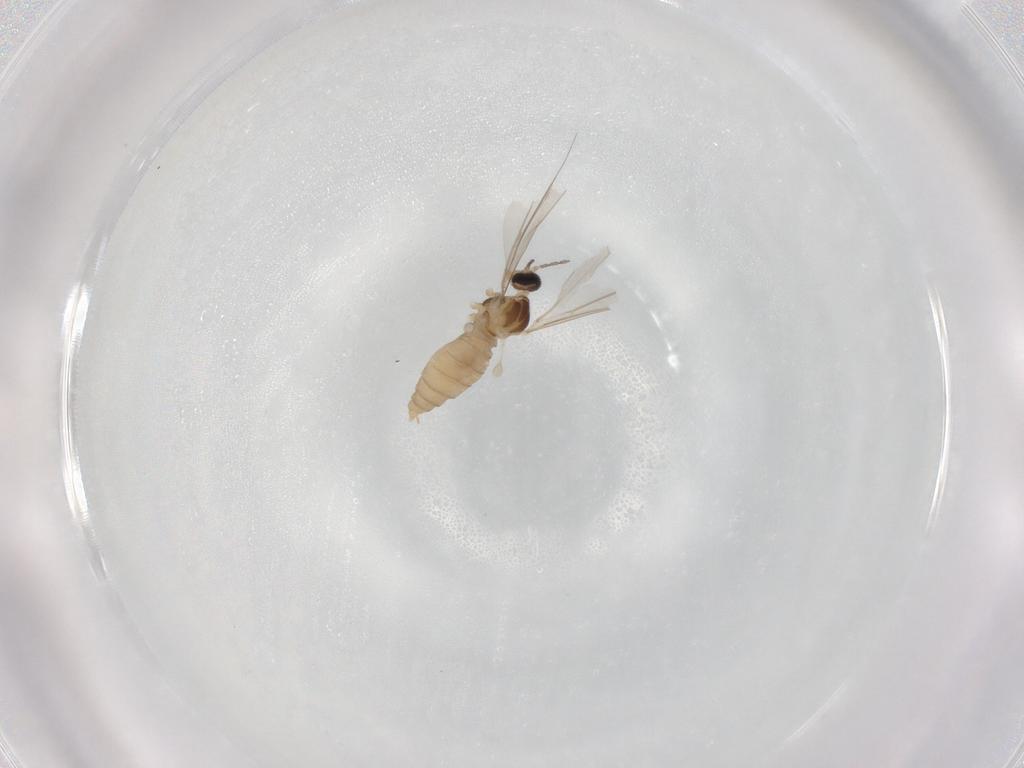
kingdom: Animalia
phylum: Arthropoda
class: Insecta
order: Diptera
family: Cecidomyiidae
